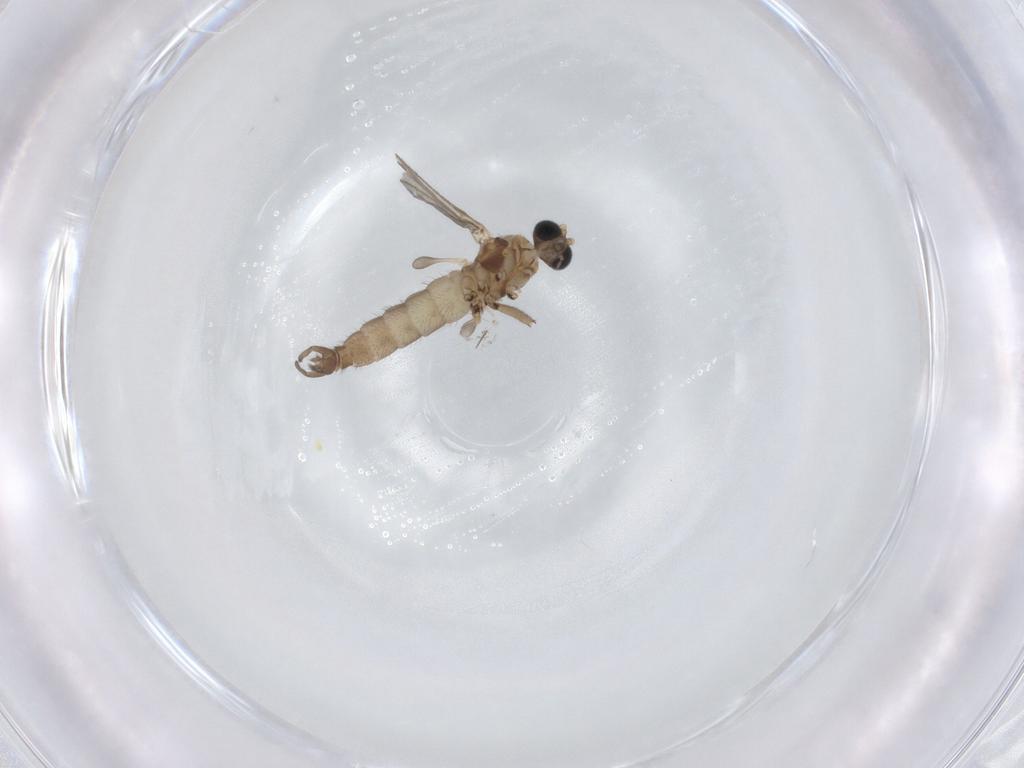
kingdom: Animalia
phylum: Arthropoda
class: Insecta
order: Diptera
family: Sciaridae
